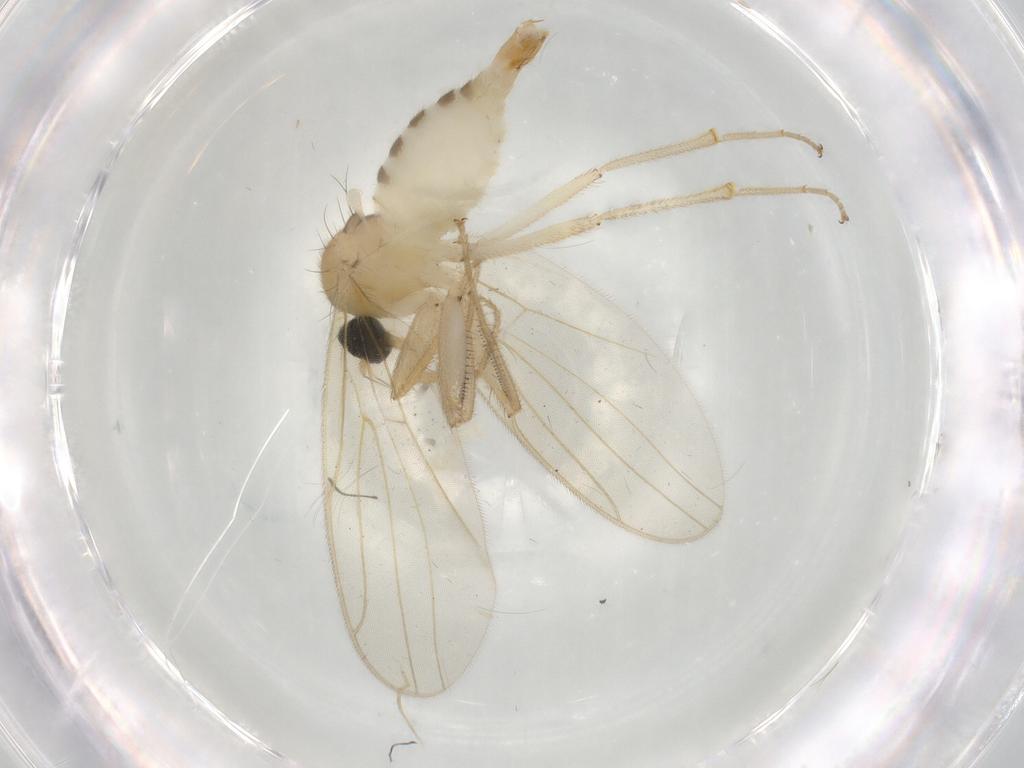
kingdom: Animalia
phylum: Arthropoda
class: Insecta
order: Diptera
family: Hybotidae
